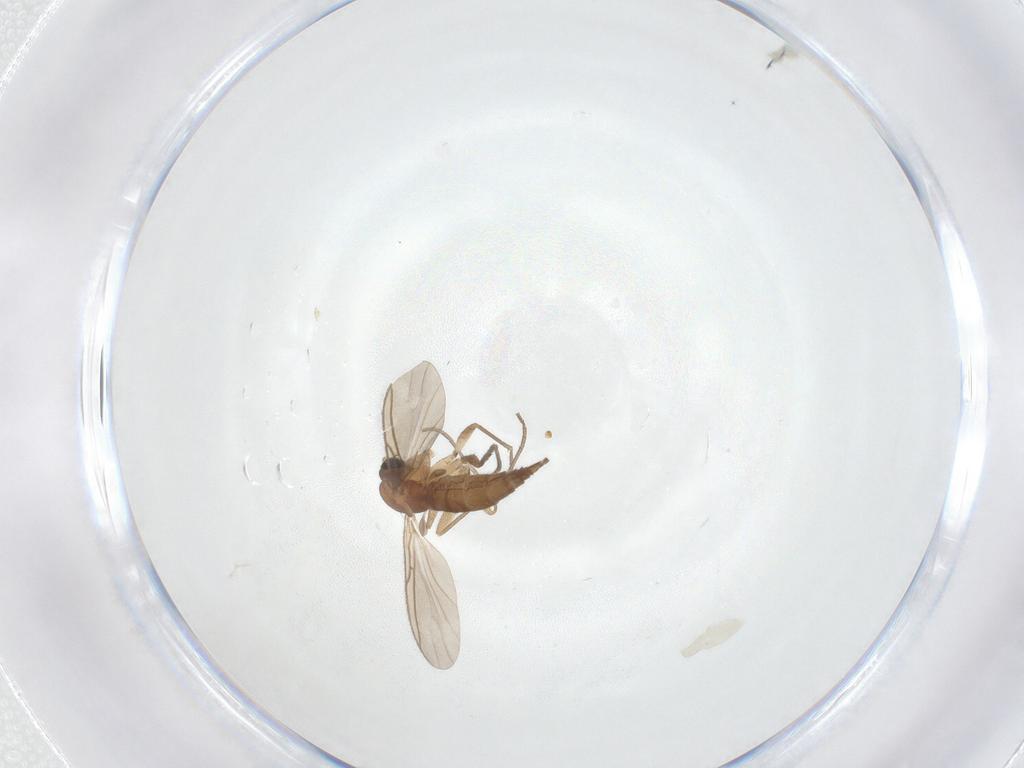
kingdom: Animalia
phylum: Arthropoda
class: Insecta
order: Diptera
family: Sciaridae
